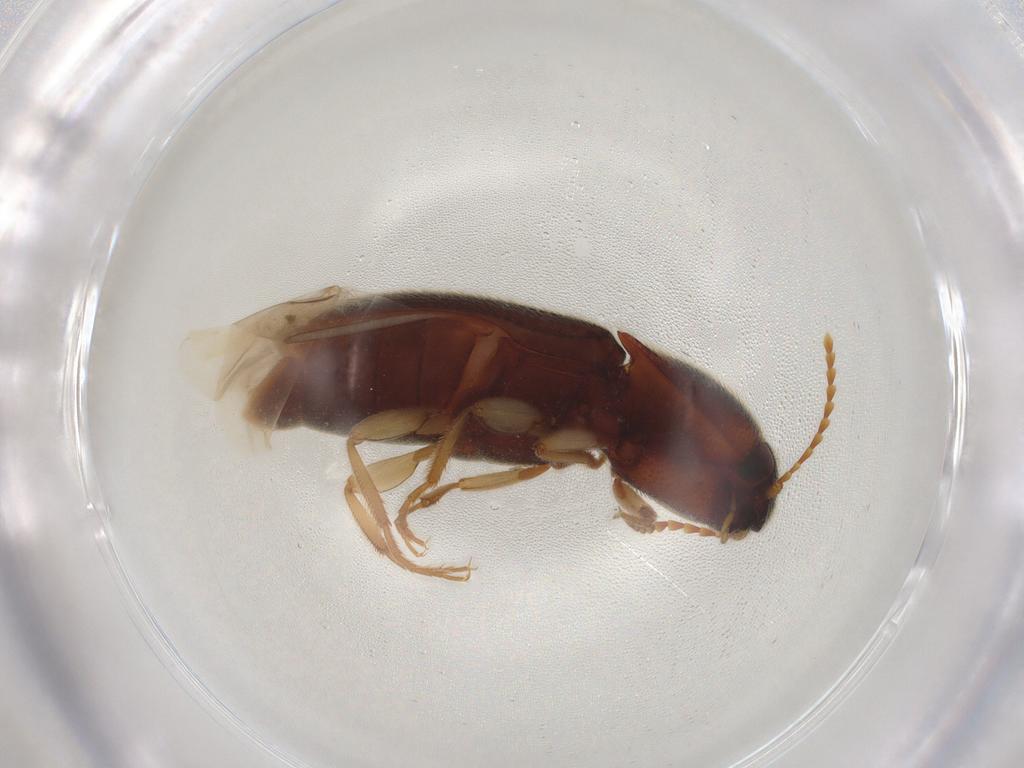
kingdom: Animalia
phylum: Arthropoda
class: Insecta
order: Coleoptera
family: Elateridae
